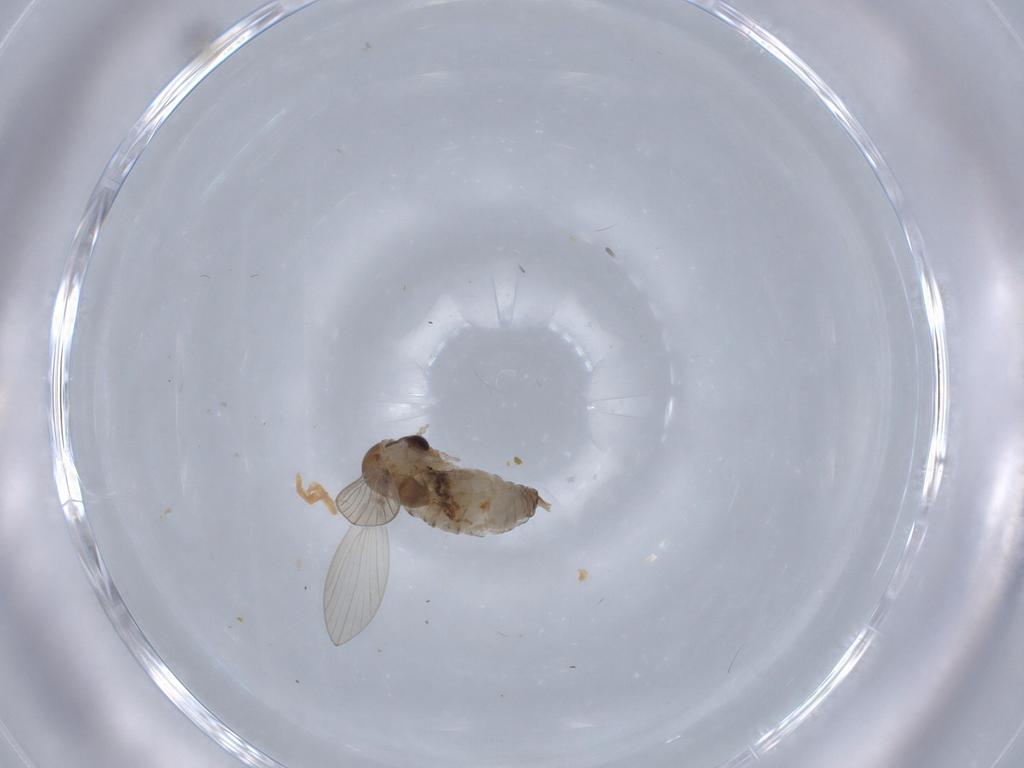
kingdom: Animalia
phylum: Arthropoda
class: Insecta
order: Diptera
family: Psychodidae
